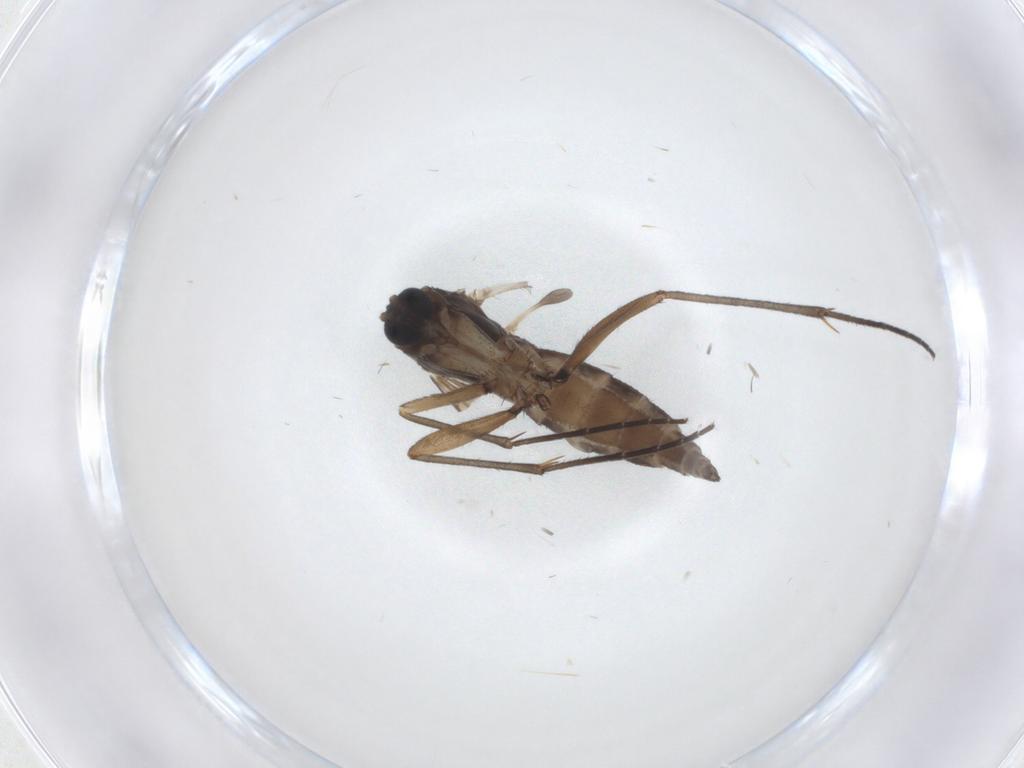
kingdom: Animalia
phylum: Arthropoda
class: Insecta
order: Diptera
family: Sciaridae
